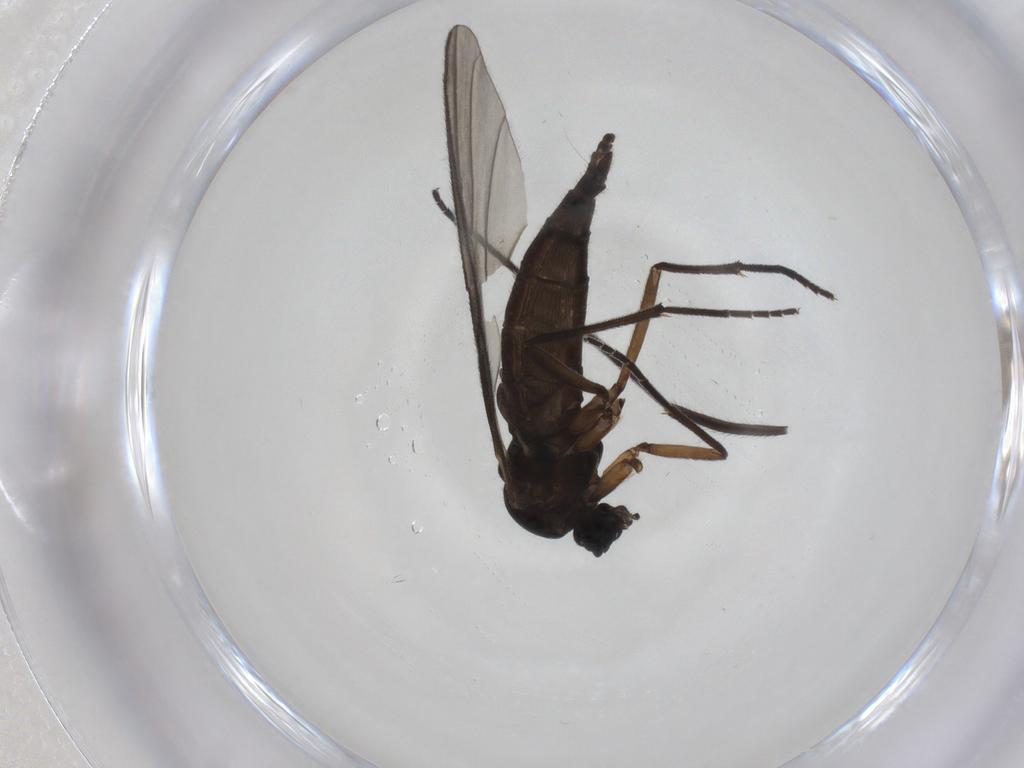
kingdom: Animalia
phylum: Arthropoda
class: Insecta
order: Diptera
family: Sciaridae
